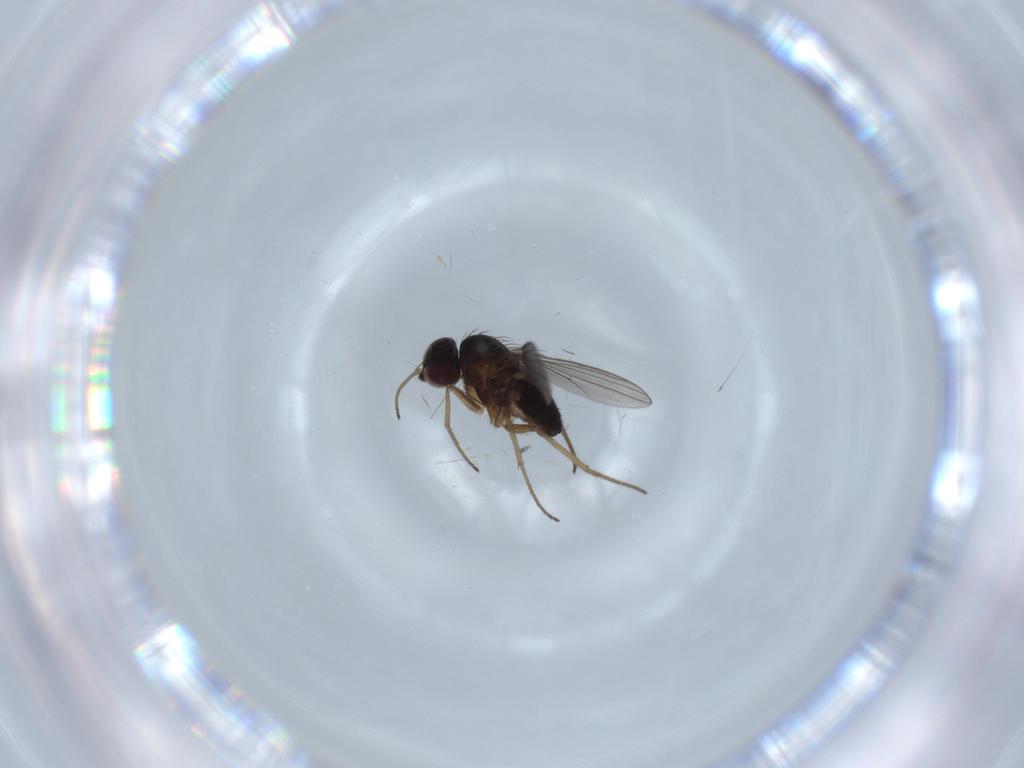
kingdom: Animalia
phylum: Arthropoda
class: Insecta
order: Diptera
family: Dolichopodidae
